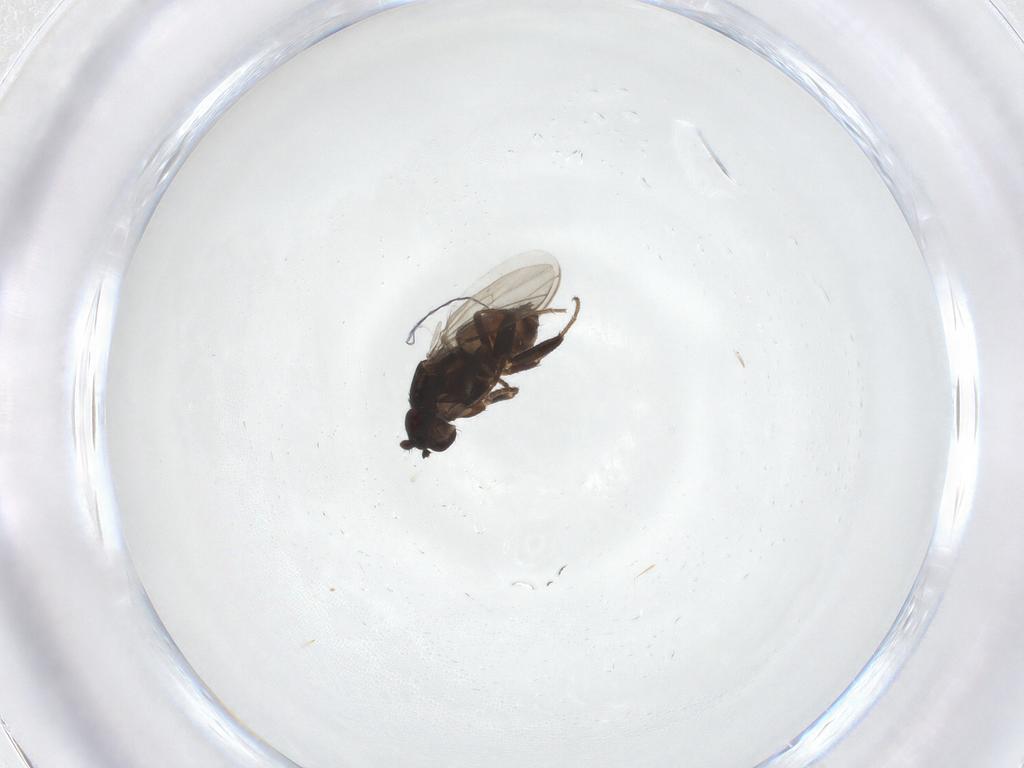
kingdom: Animalia
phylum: Arthropoda
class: Insecta
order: Diptera
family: Sphaeroceridae
